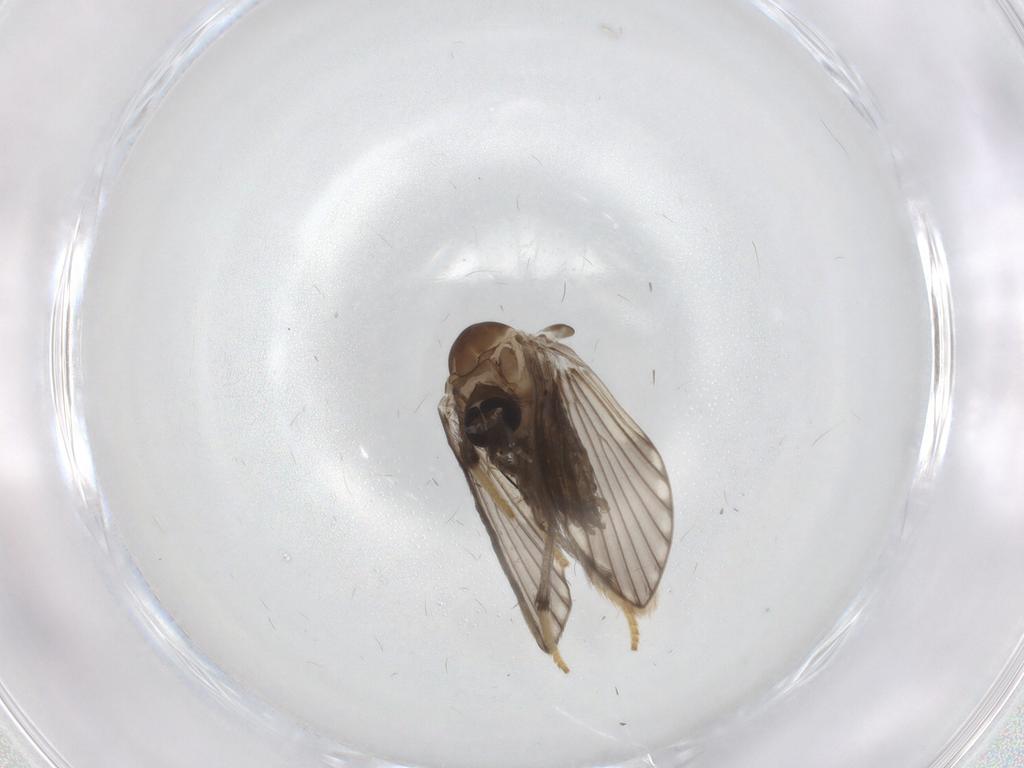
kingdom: Animalia
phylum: Arthropoda
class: Insecta
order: Diptera
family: Psychodidae
